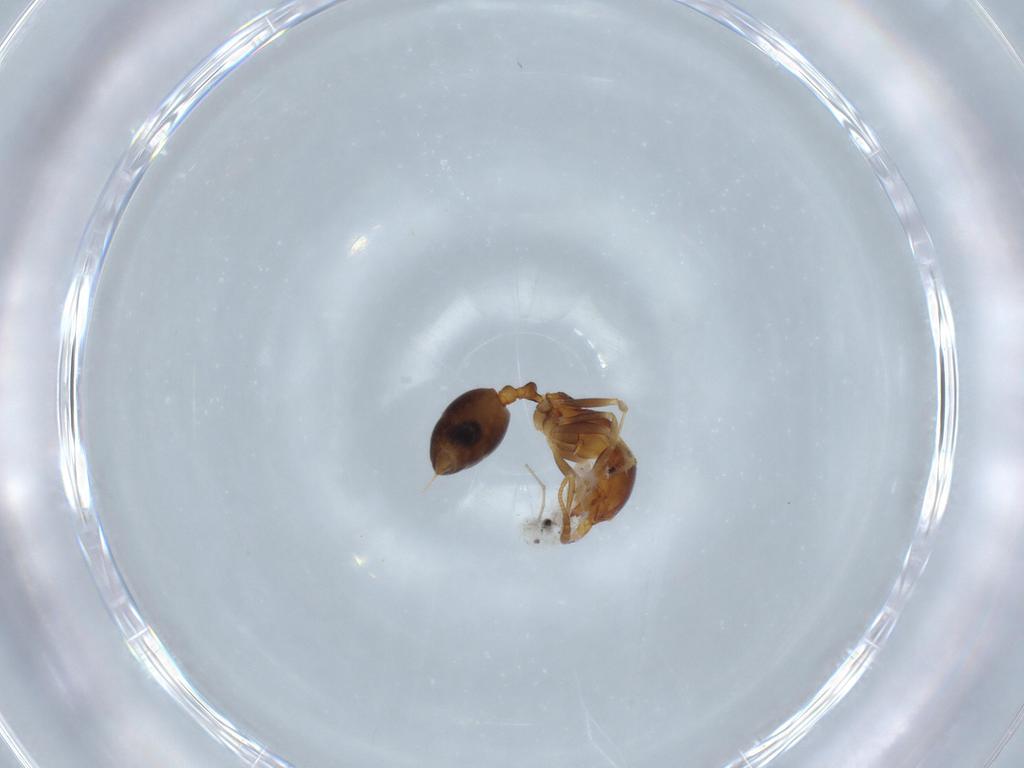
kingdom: Animalia
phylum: Arthropoda
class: Insecta
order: Hymenoptera
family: Formicidae
